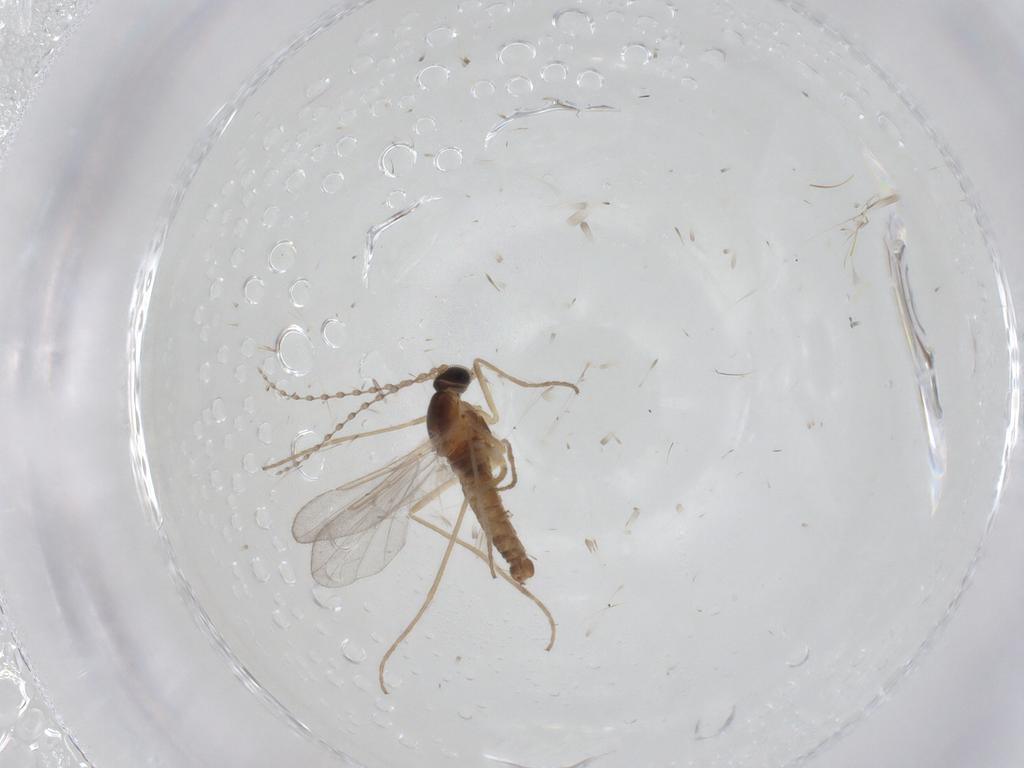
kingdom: Animalia
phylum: Arthropoda
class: Insecta
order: Diptera
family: Cecidomyiidae
